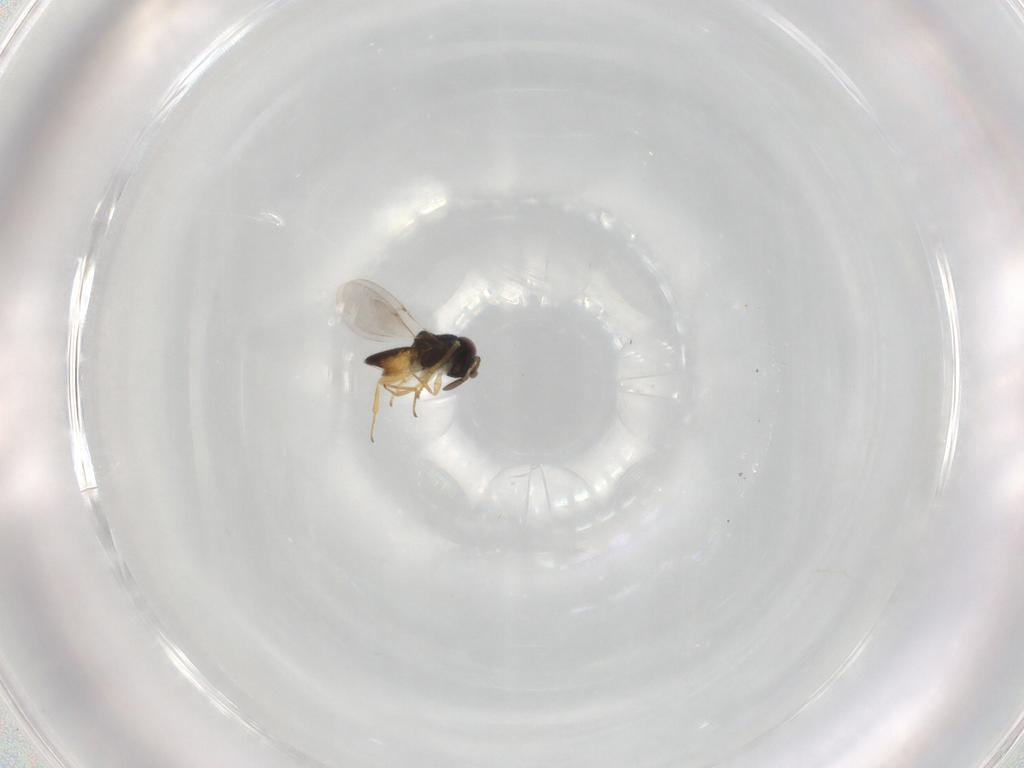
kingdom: Animalia
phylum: Arthropoda
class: Insecta
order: Hymenoptera
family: Encyrtidae
